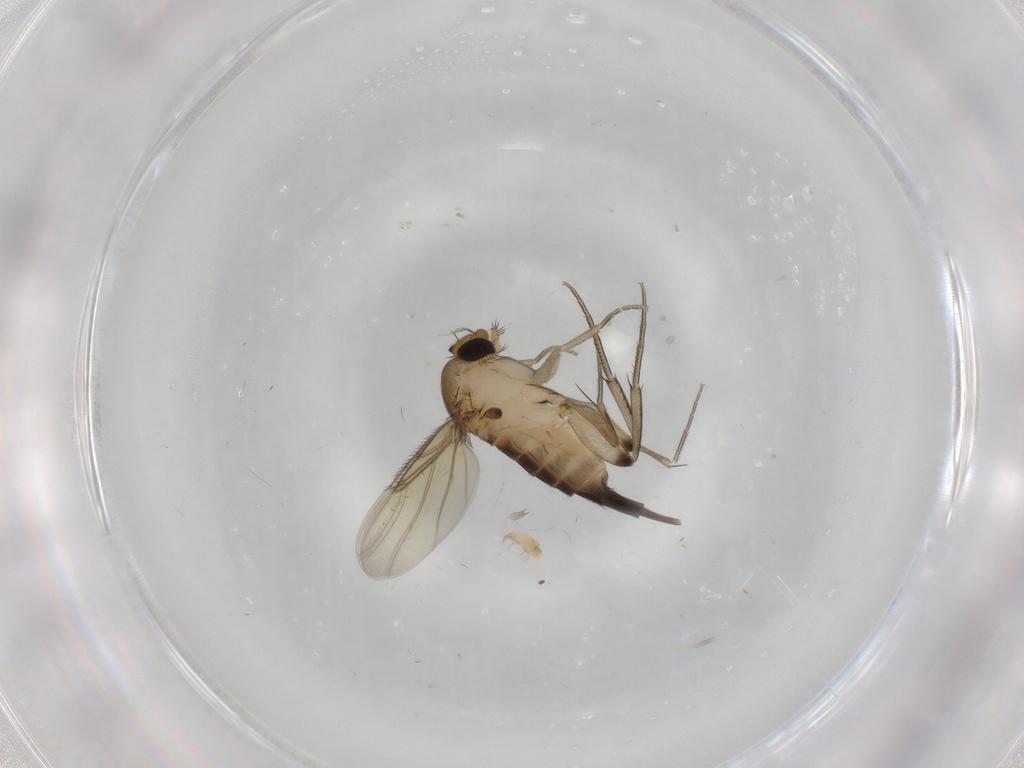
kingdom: Animalia
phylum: Arthropoda
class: Insecta
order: Diptera
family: Phoridae
